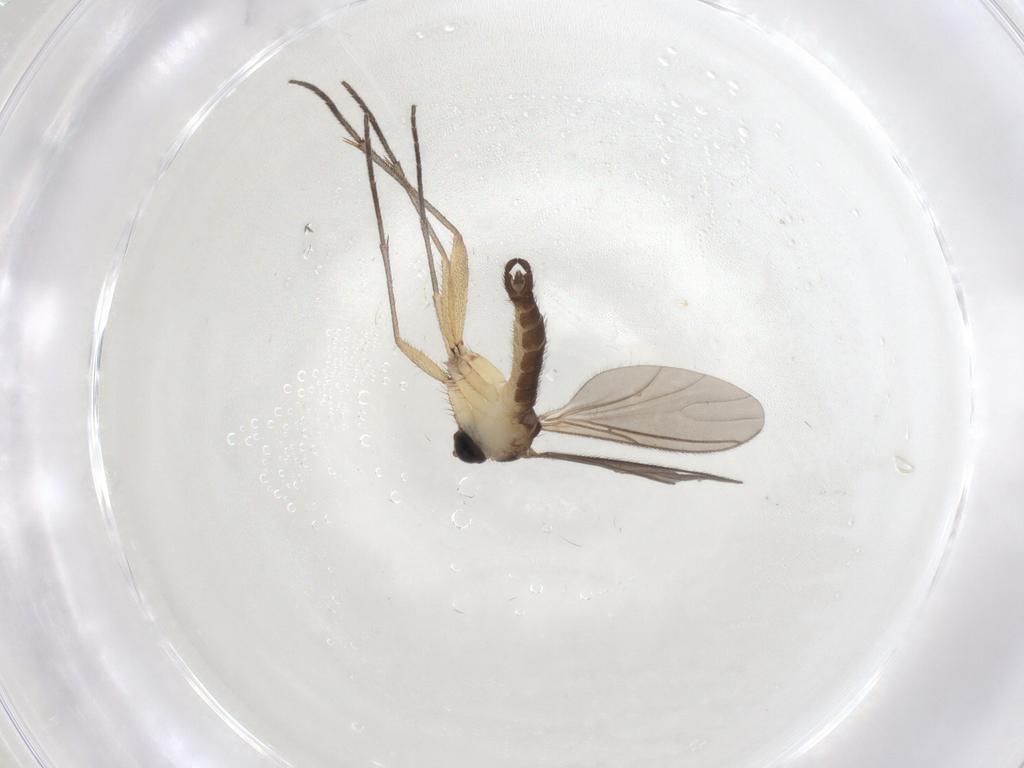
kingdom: Animalia
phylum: Arthropoda
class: Insecta
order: Diptera
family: Sciaridae
